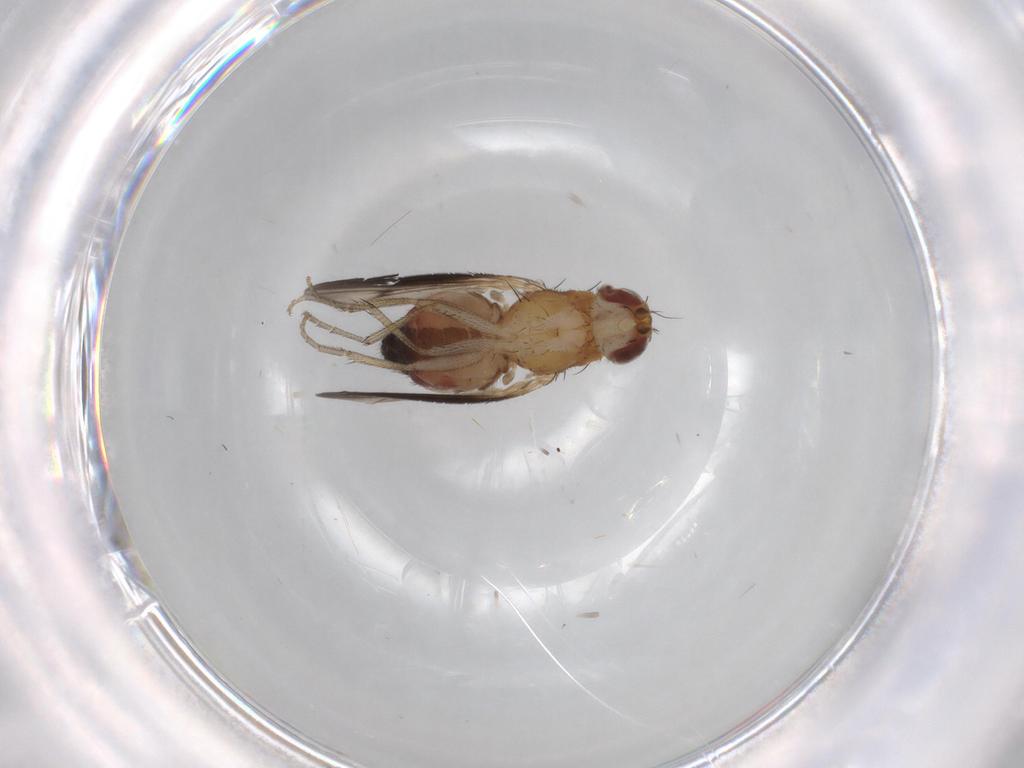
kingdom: Animalia
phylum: Arthropoda
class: Insecta
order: Diptera
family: Heleomyzidae
